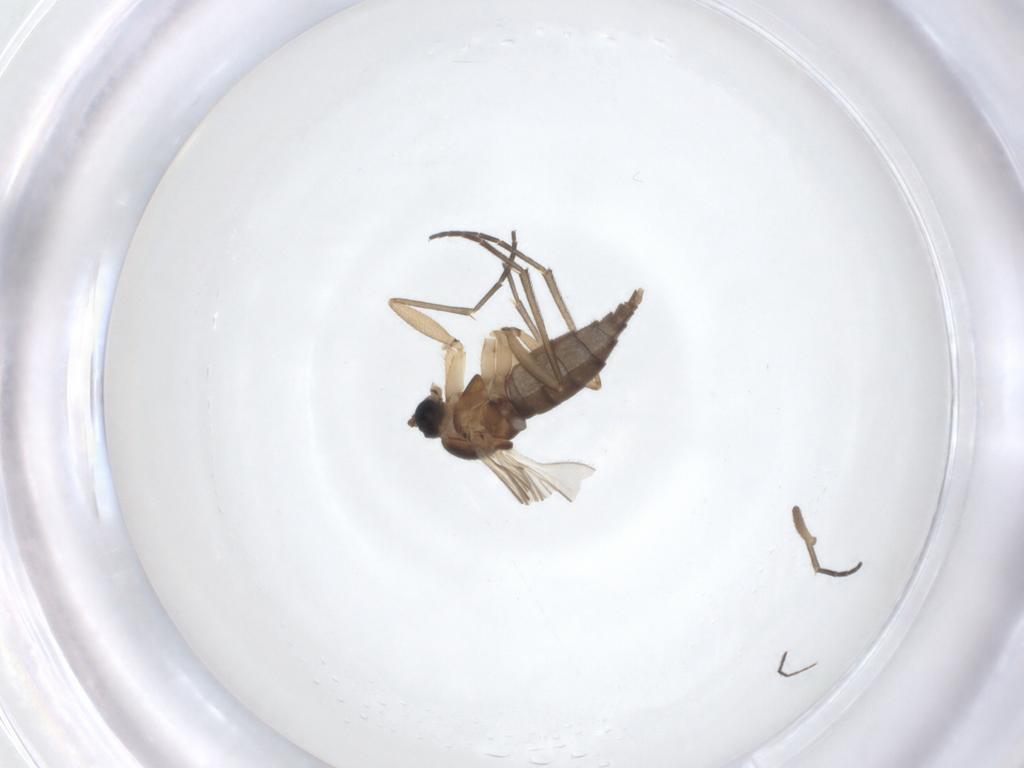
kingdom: Animalia
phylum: Arthropoda
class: Insecta
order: Diptera
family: Sciaridae
